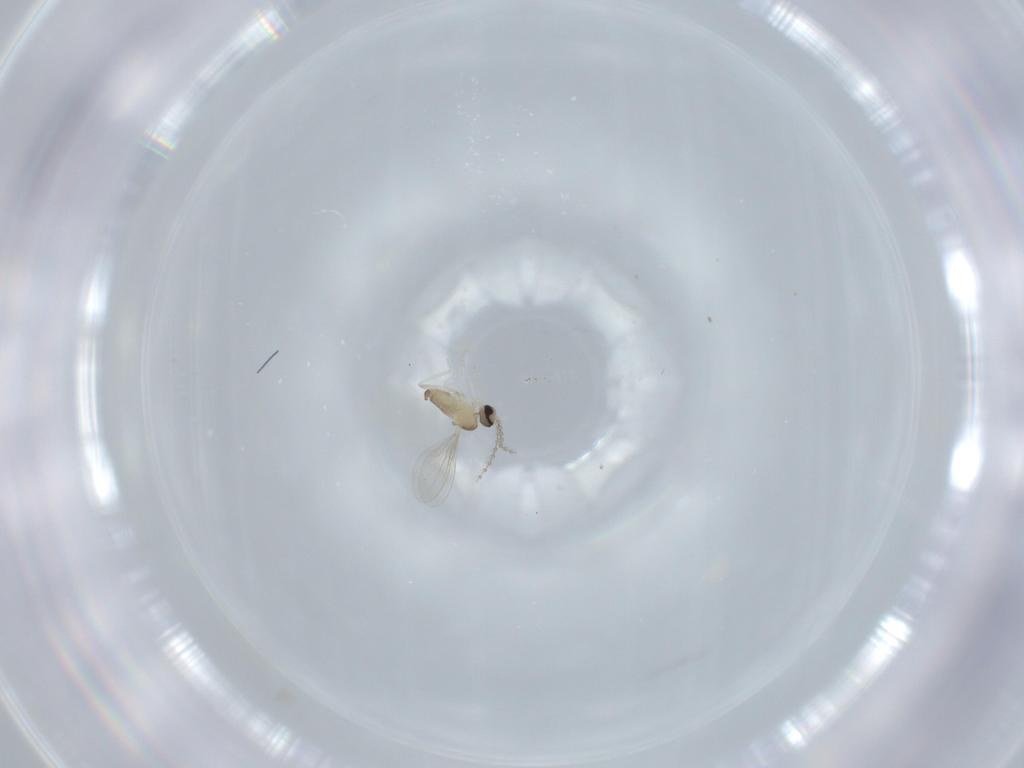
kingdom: Animalia
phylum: Arthropoda
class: Insecta
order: Diptera
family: Cecidomyiidae
